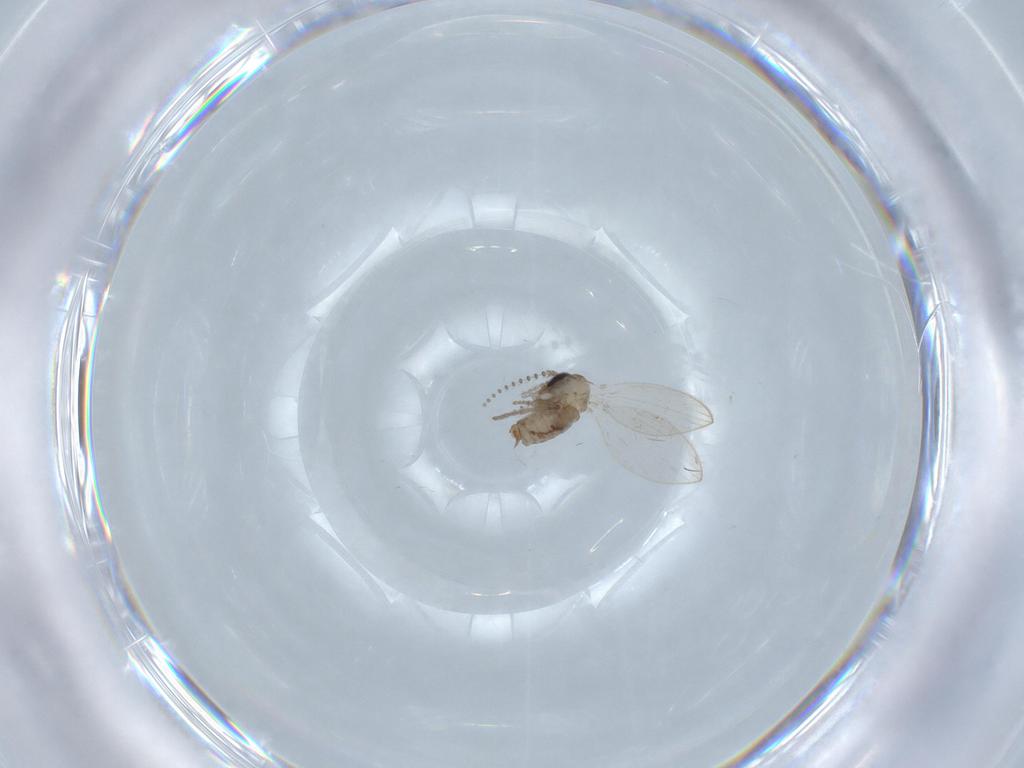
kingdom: Animalia
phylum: Arthropoda
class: Insecta
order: Diptera
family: Psychodidae
